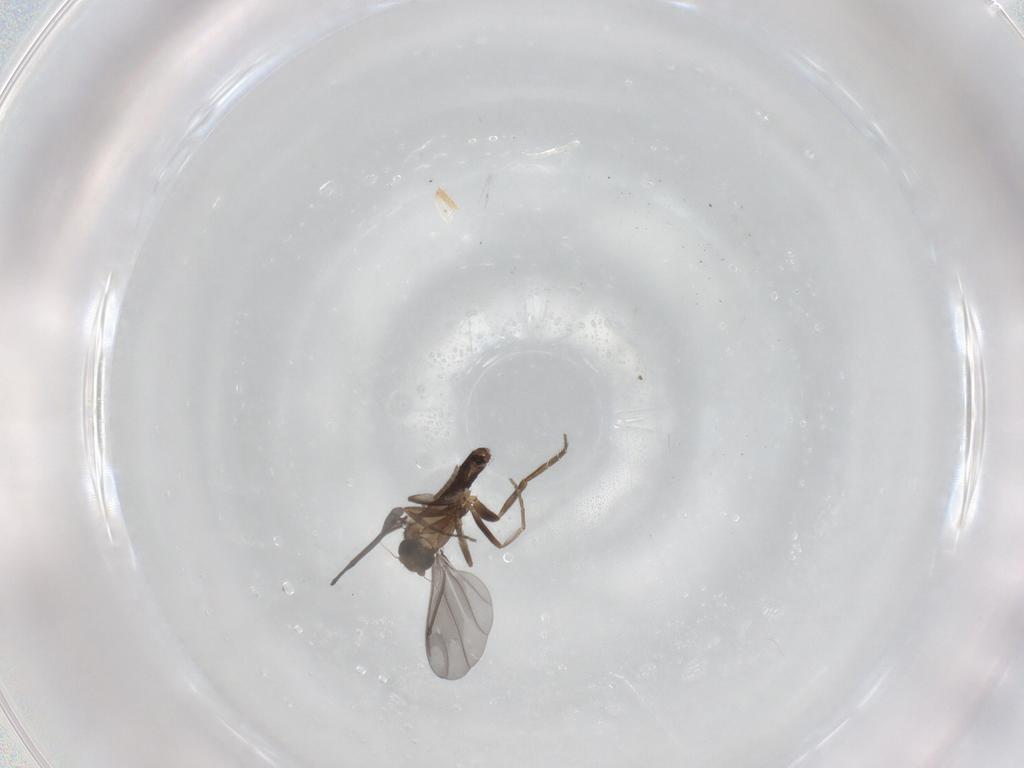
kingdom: Animalia
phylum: Arthropoda
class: Insecta
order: Diptera
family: Phoridae
